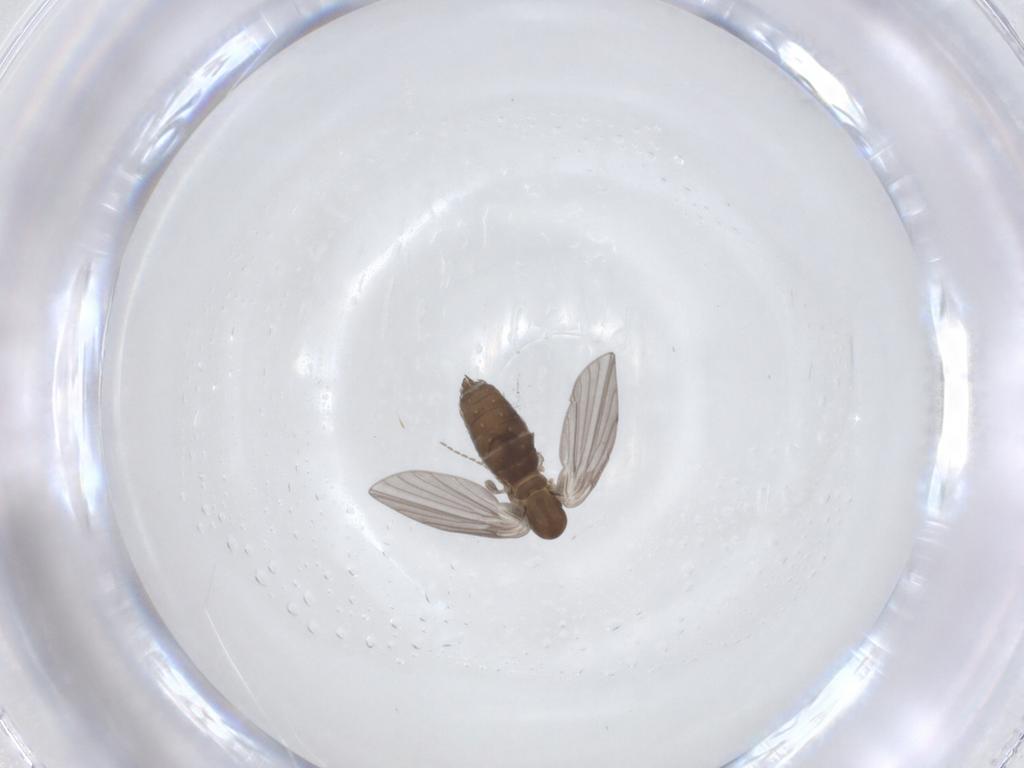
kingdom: Animalia
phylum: Arthropoda
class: Insecta
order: Diptera
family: Psychodidae
